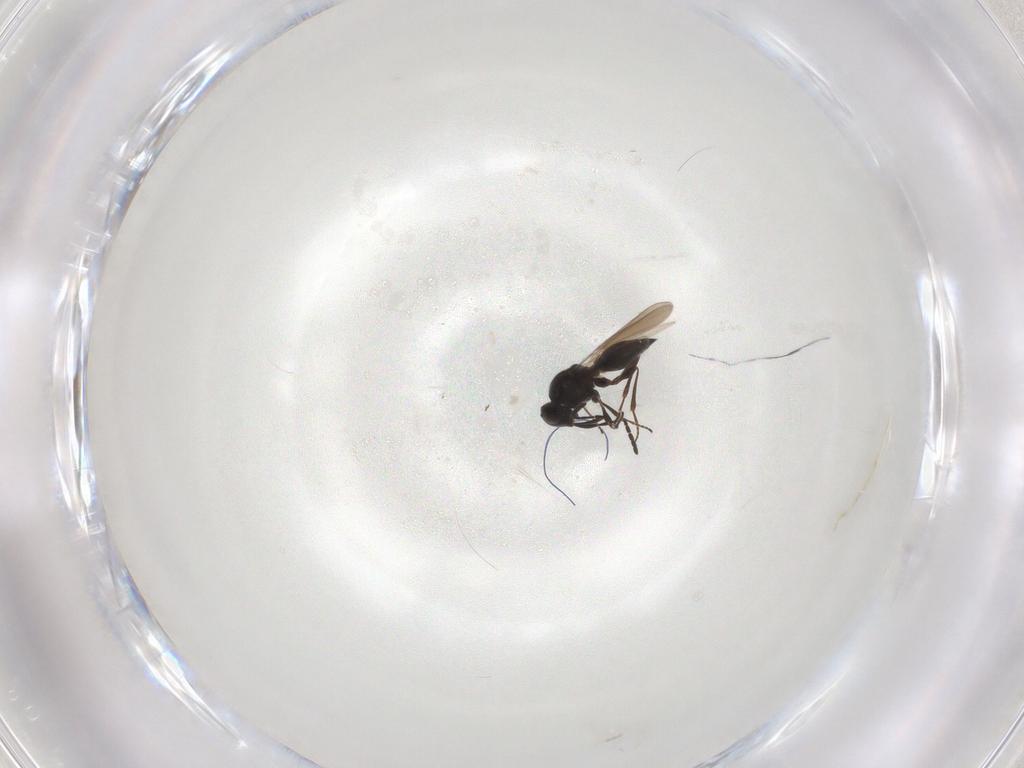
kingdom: Animalia
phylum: Arthropoda
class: Insecta
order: Hymenoptera
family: Platygastridae
